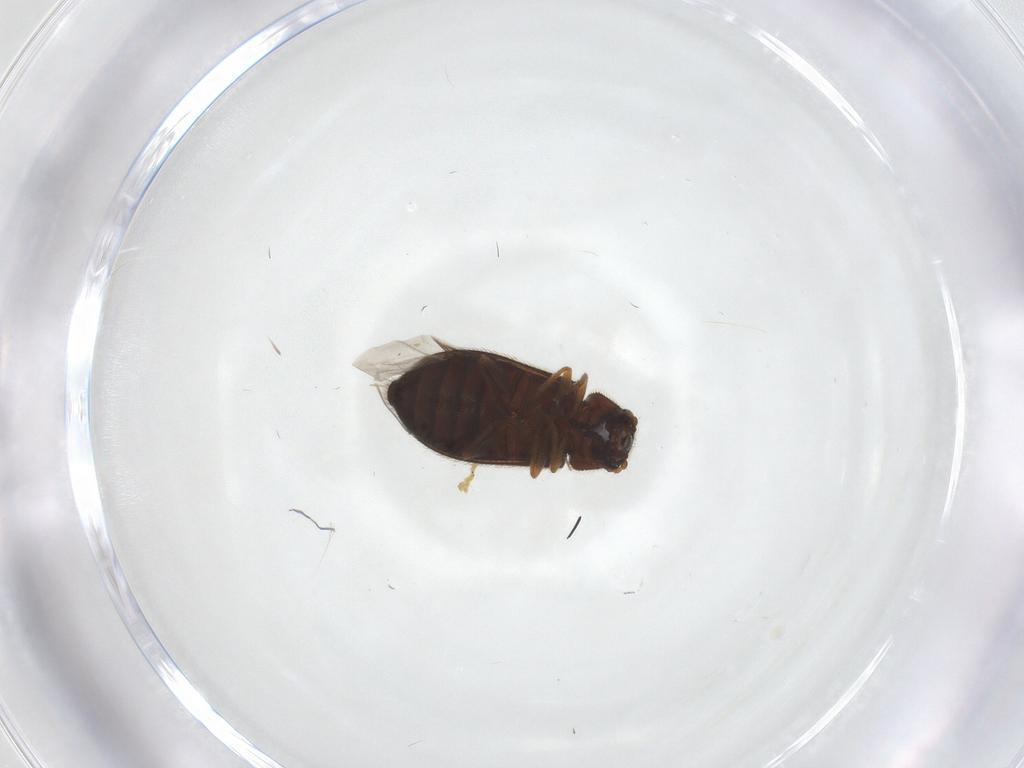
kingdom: Animalia
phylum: Arthropoda
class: Insecta
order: Coleoptera
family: Melyridae
